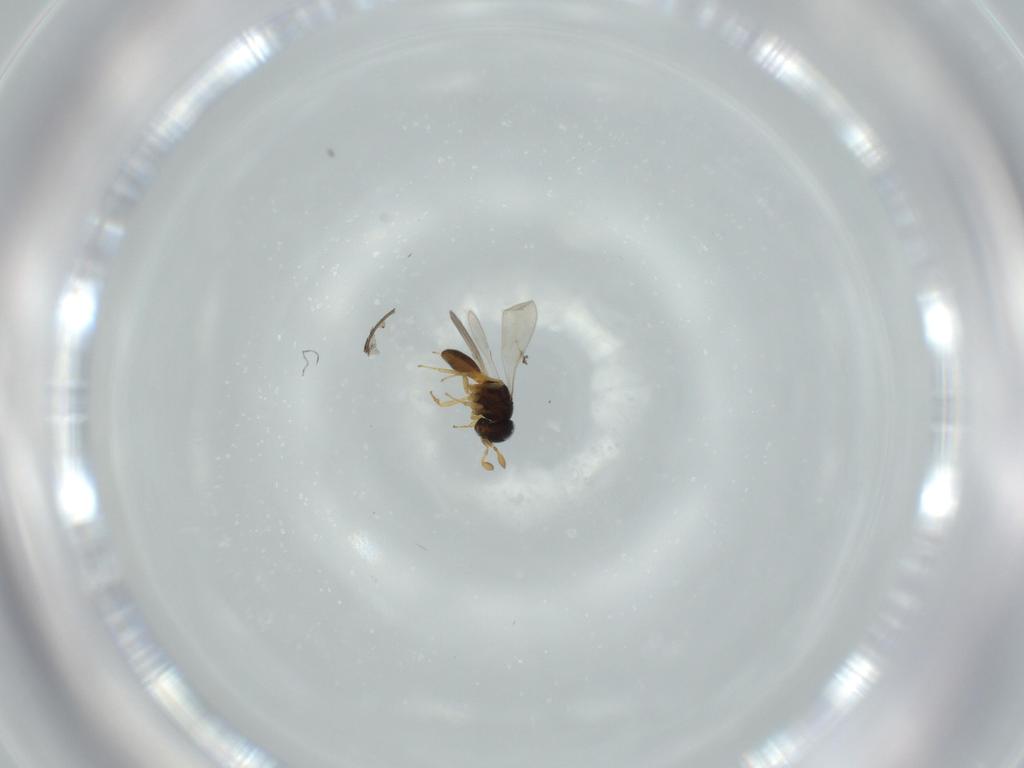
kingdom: Animalia
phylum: Arthropoda
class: Insecta
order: Hymenoptera
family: Scelionidae
